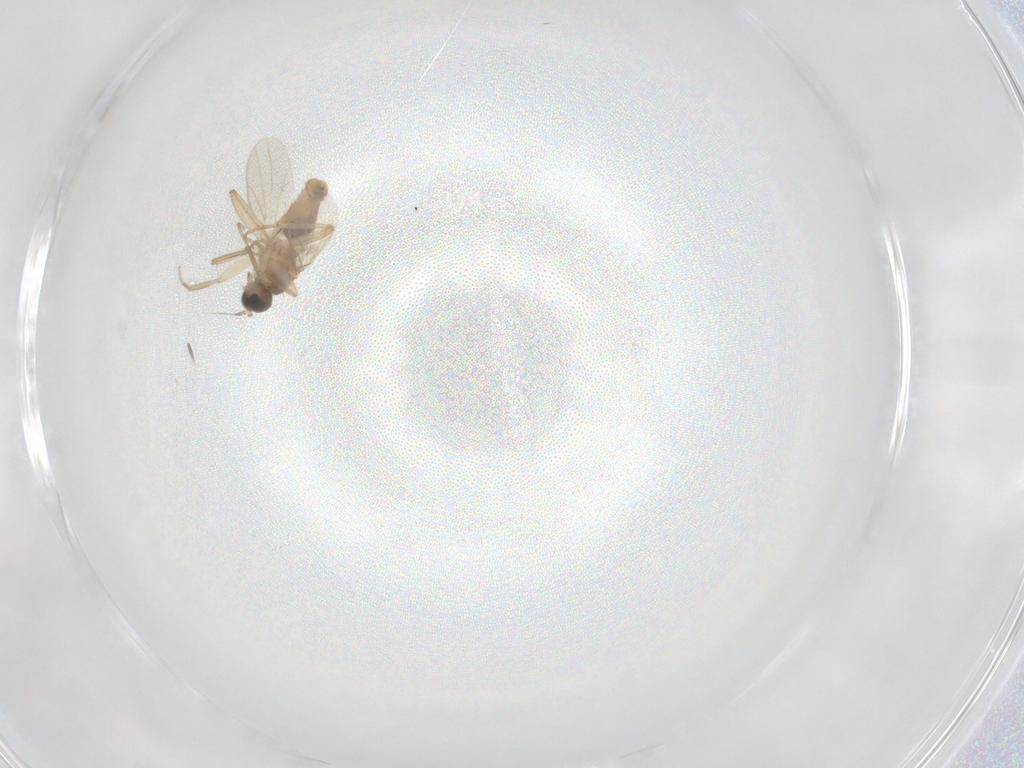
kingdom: Animalia
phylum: Arthropoda
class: Insecta
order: Diptera
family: Hybotidae
